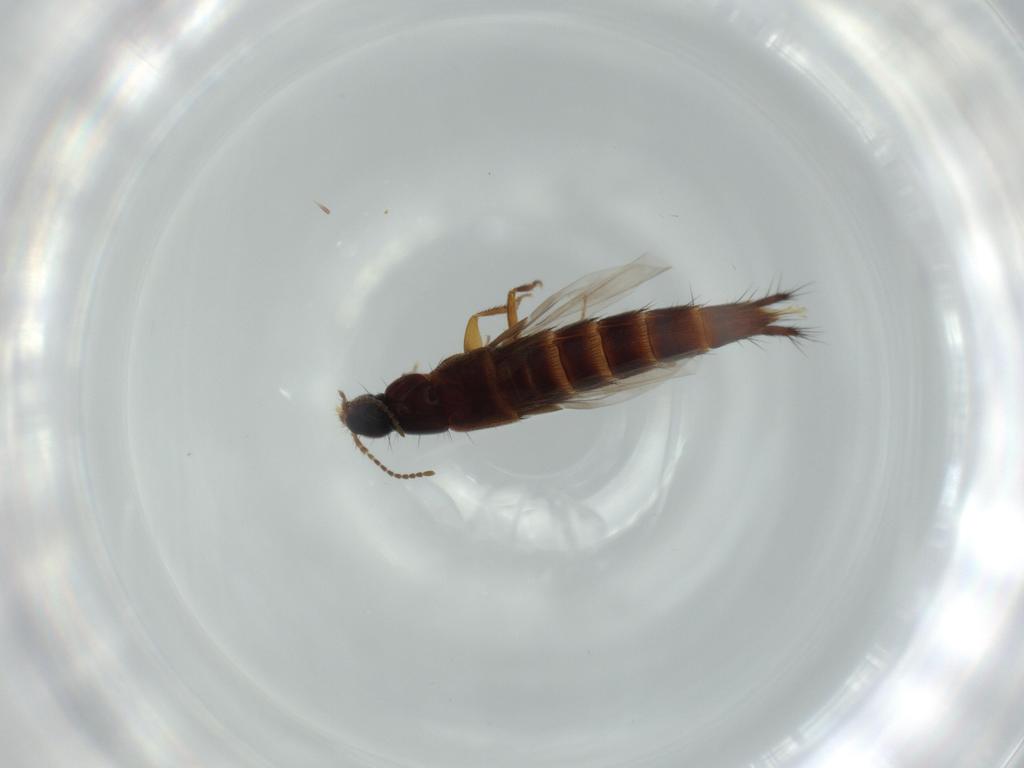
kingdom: Animalia
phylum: Arthropoda
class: Insecta
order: Coleoptera
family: Staphylinidae
